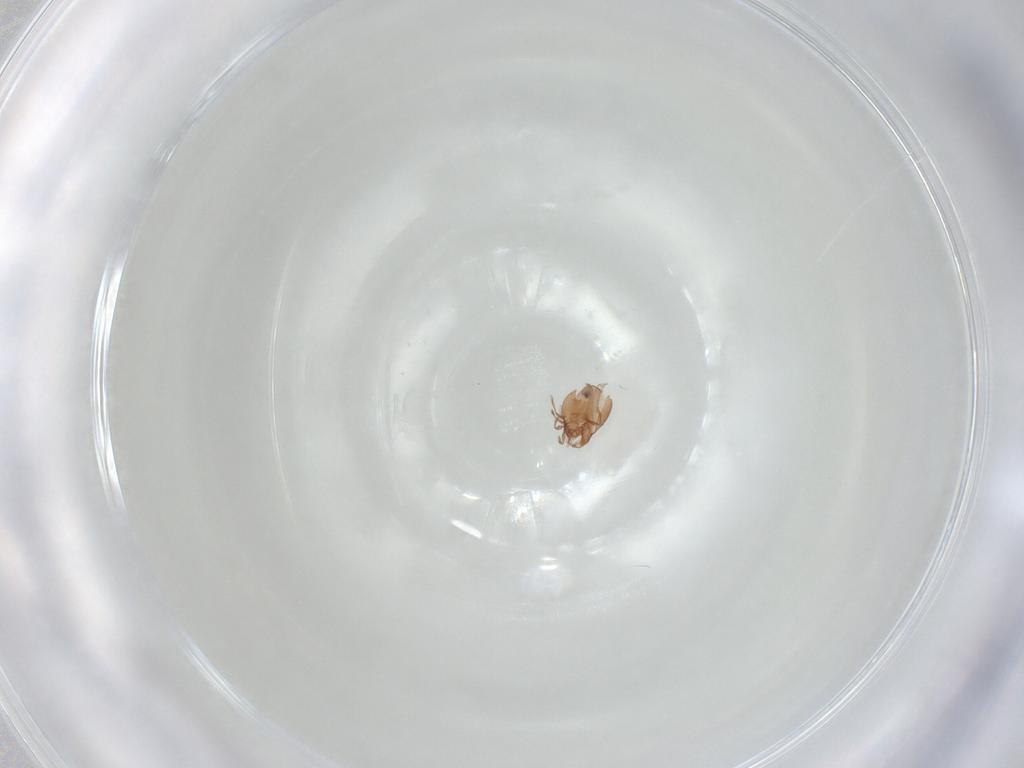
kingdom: Animalia
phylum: Arthropoda
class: Arachnida
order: Sarcoptiformes
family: Scheloribatidae
